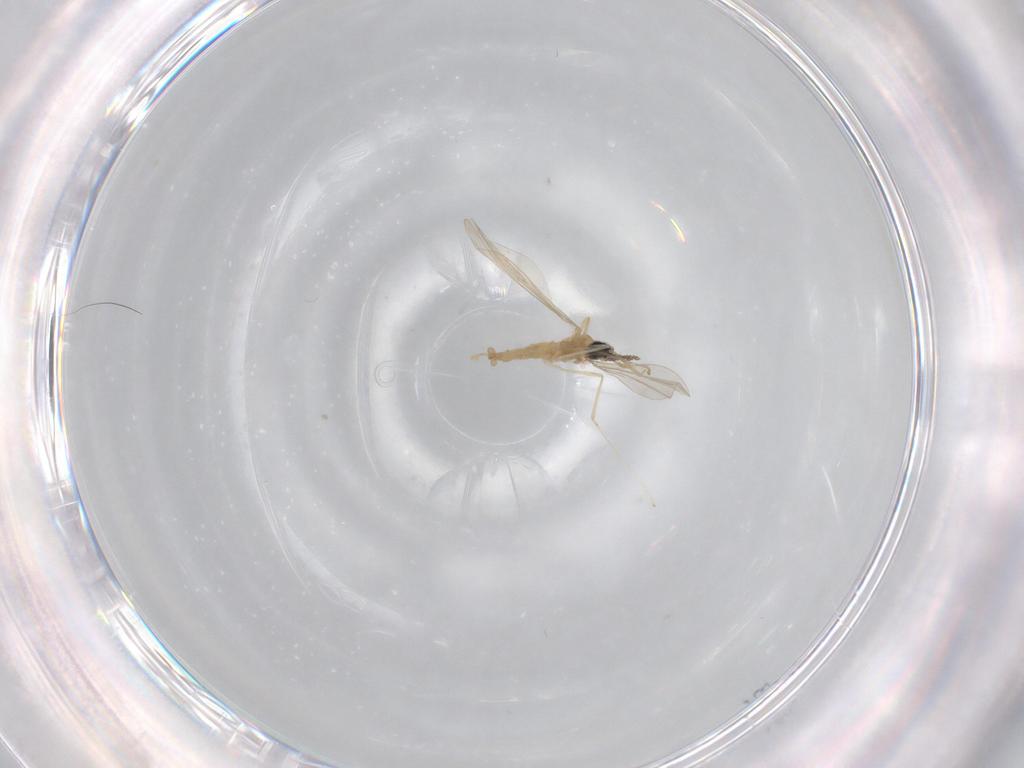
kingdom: Animalia
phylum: Arthropoda
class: Insecta
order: Diptera
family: Cecidomyiidae
